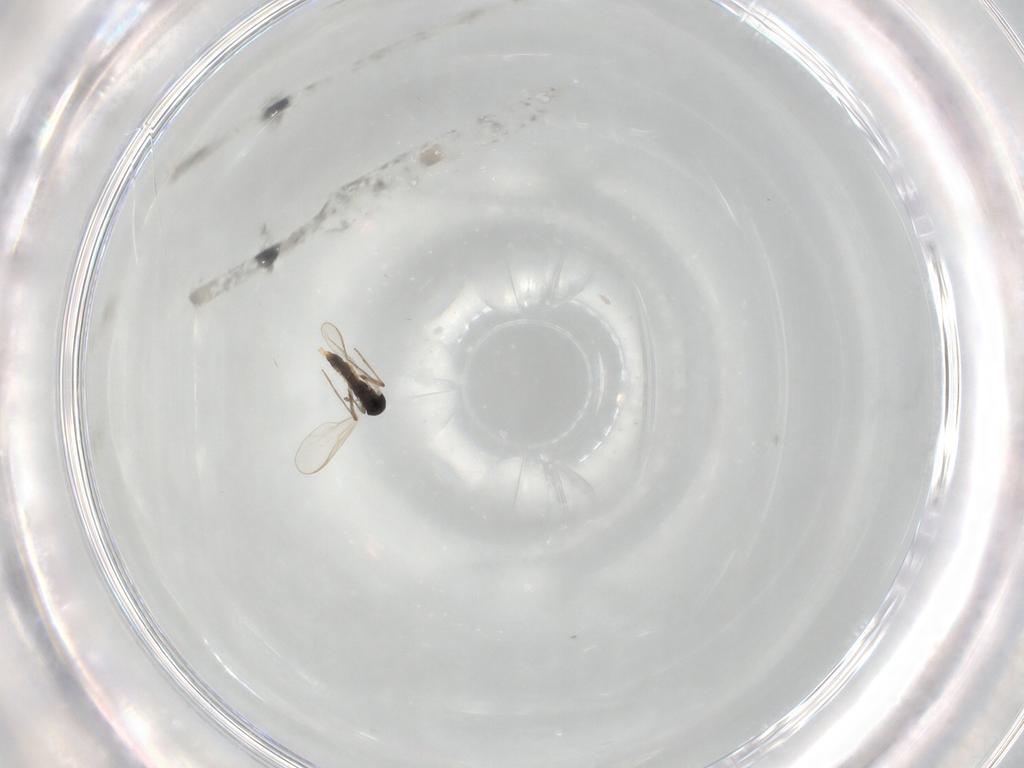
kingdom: Animalia
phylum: Arthropoda
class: Insecta
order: Diptera
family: Chironomidae
